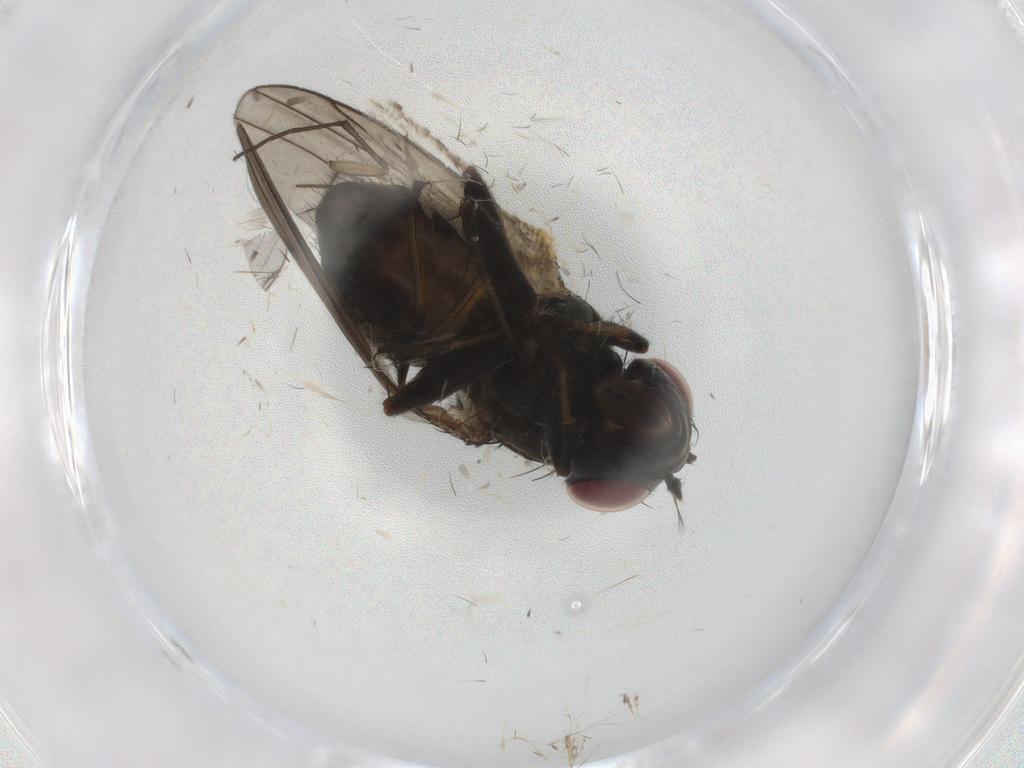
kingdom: Animalia
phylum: Arthropoda
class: Insecta
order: Diptera
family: Ephydridae
